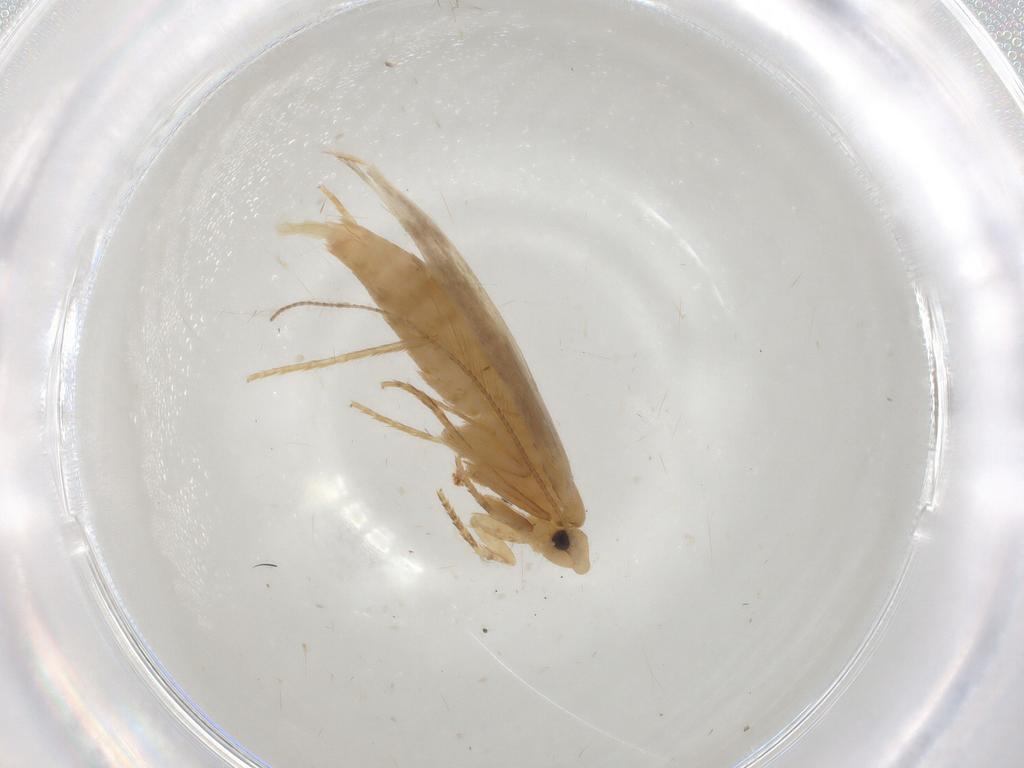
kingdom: Animalia
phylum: Arthropoda
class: Insecta
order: Lepidoptera
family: Tineidae
